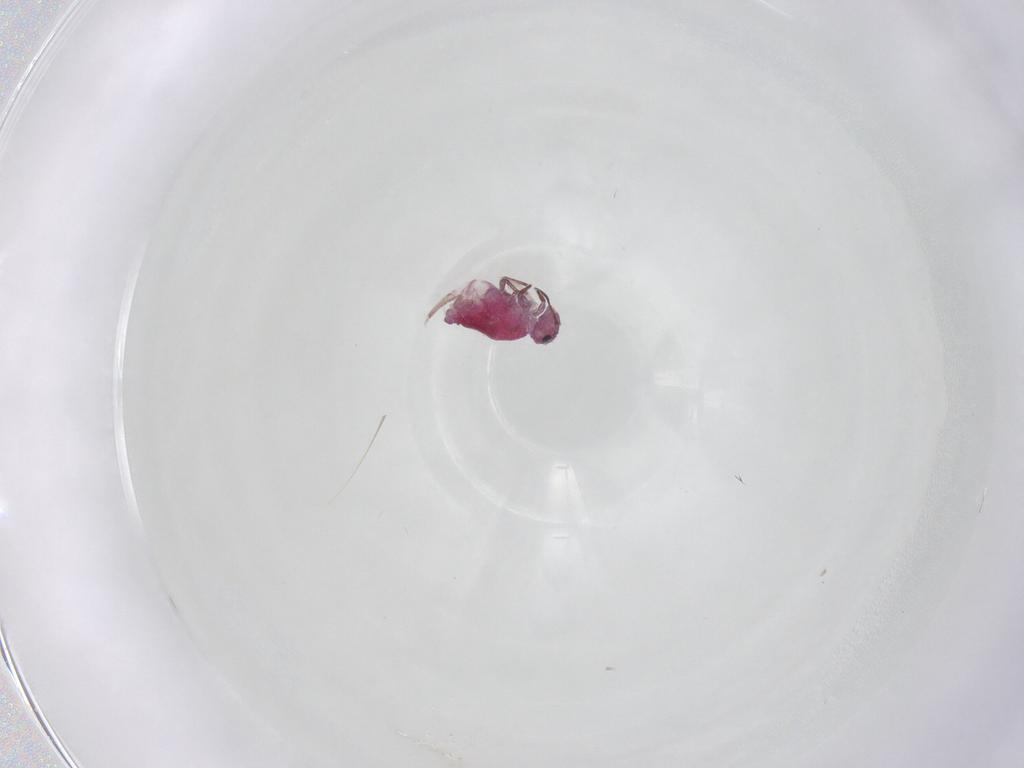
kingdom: Animalia
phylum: Arthropoda
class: Collembola
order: Symphypleona
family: Sminthuridae
